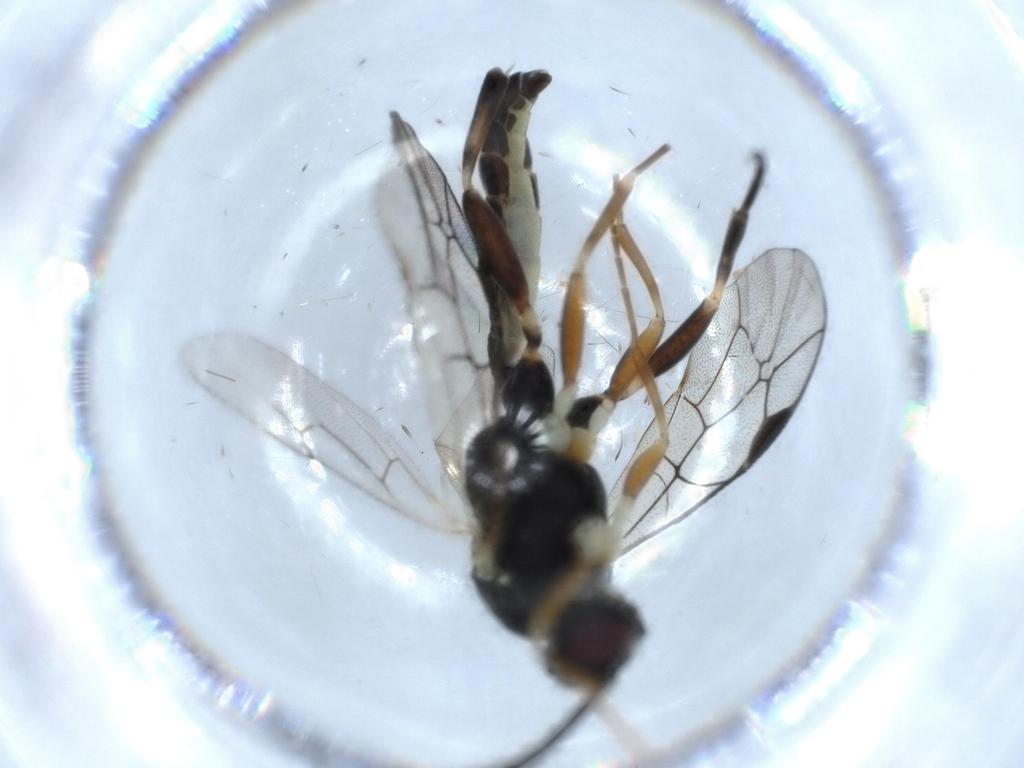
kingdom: Animalia
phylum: Arthropoda
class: Insecta
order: Hymenoptera
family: Ichneumonidae
